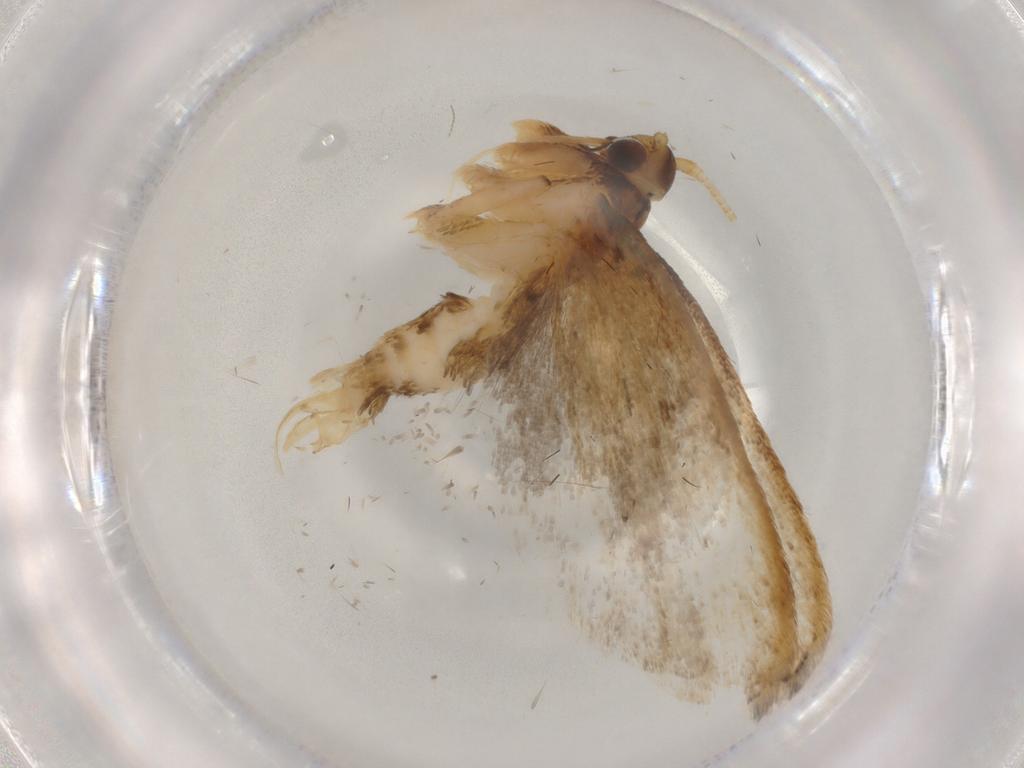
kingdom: Animalia
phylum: Arthropoda
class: Insecta
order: Lepidoptera
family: Lecithoceridae
